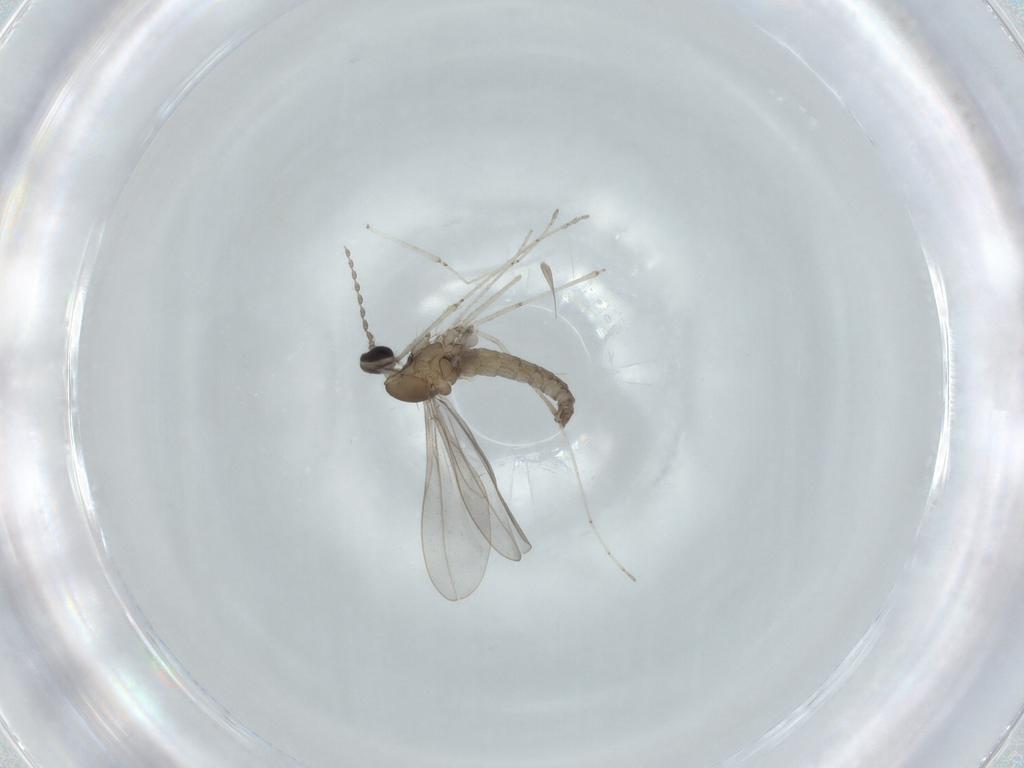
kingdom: Animalia
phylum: Arthropoda
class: Insecta
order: Diptera
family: Cecidomyiidae
